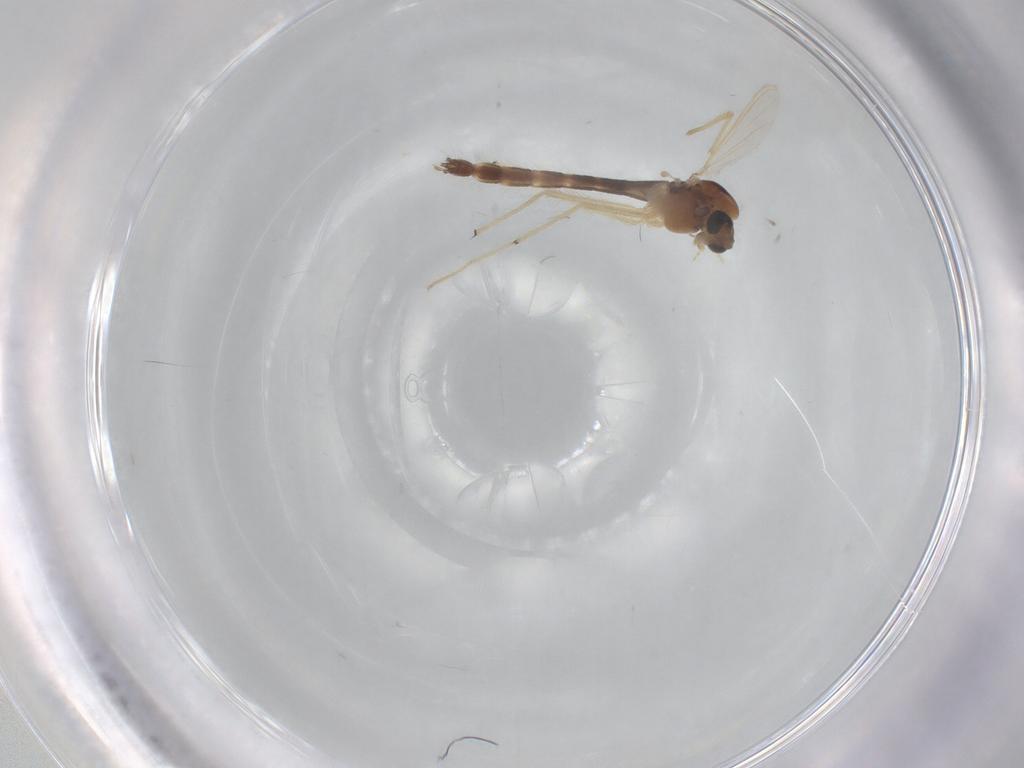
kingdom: Animalia
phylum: Arthropoda
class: Insecta
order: Diptera
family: Chironomidae
